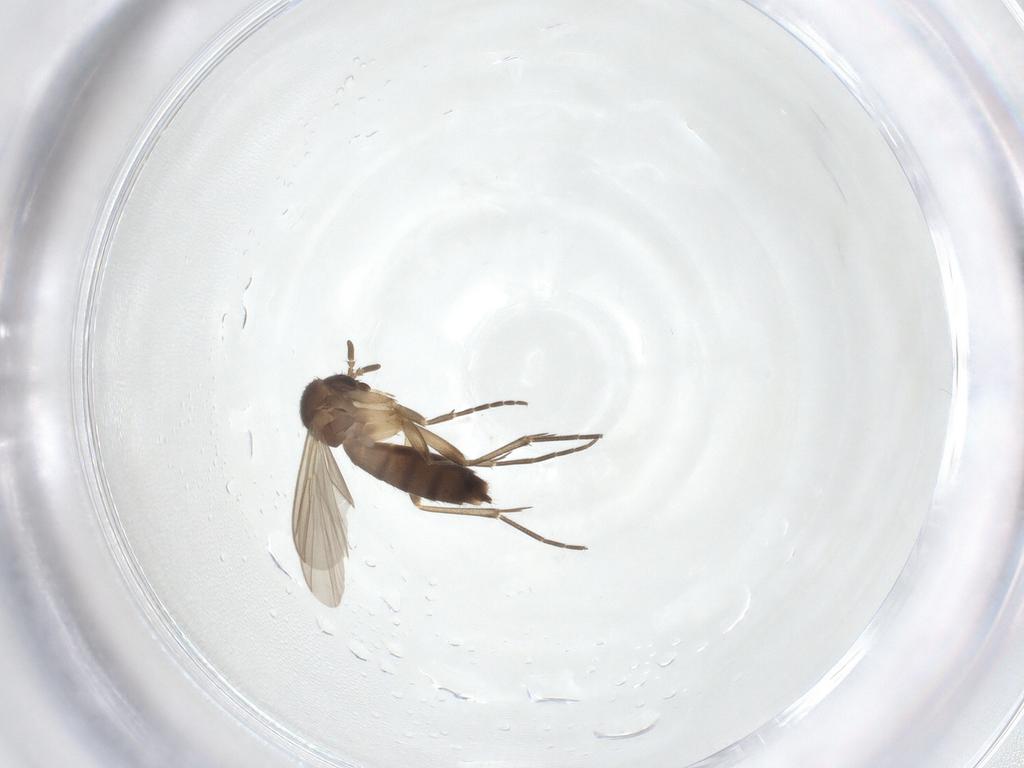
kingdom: Animalia
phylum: Arthropoda
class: Insecta
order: Diptera
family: Mycetophilidae
